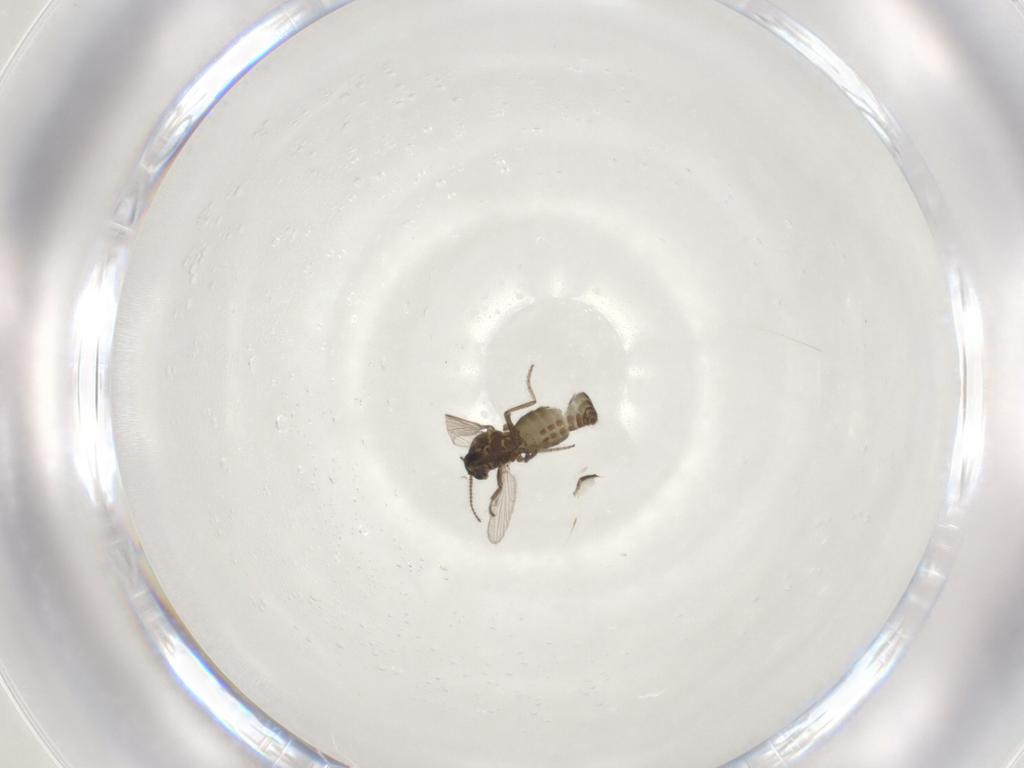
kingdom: Animalia
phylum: Arthropoda
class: Insecta
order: Diptera
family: Ceratopogonidae
